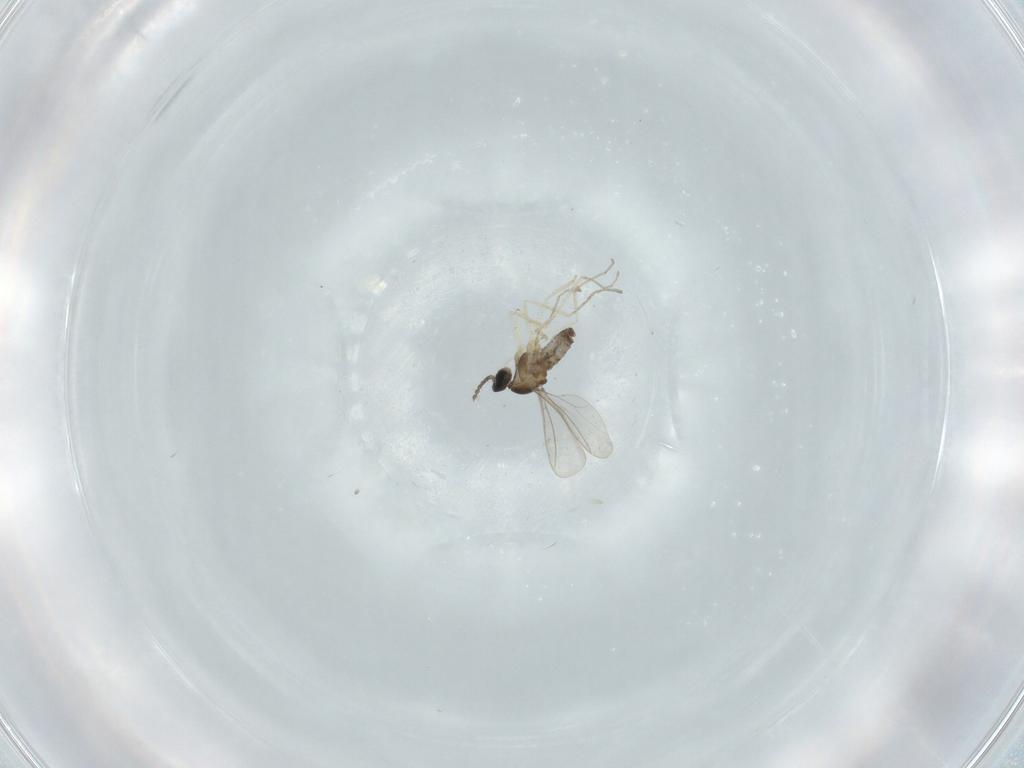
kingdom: Animalia
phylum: Arthropoda
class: Insecta
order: Diptera
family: Cecidomyiidae
